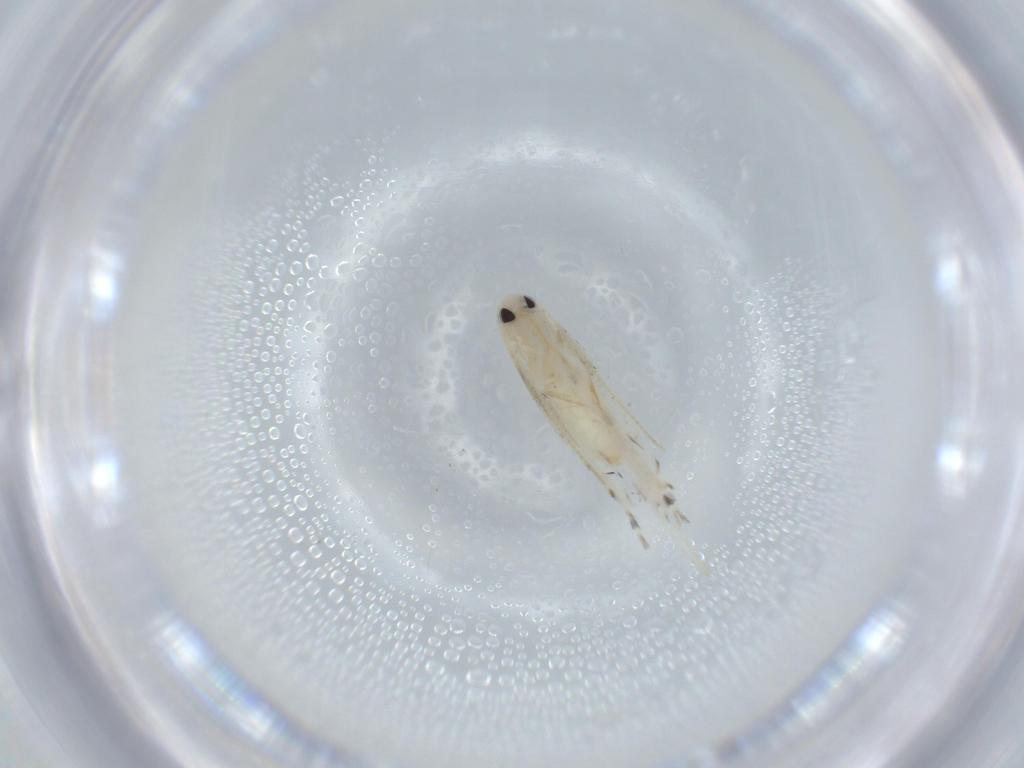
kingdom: Animalia
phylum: Arthropoda
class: Insecta
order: Lepidoptera
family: Gracillariidae
